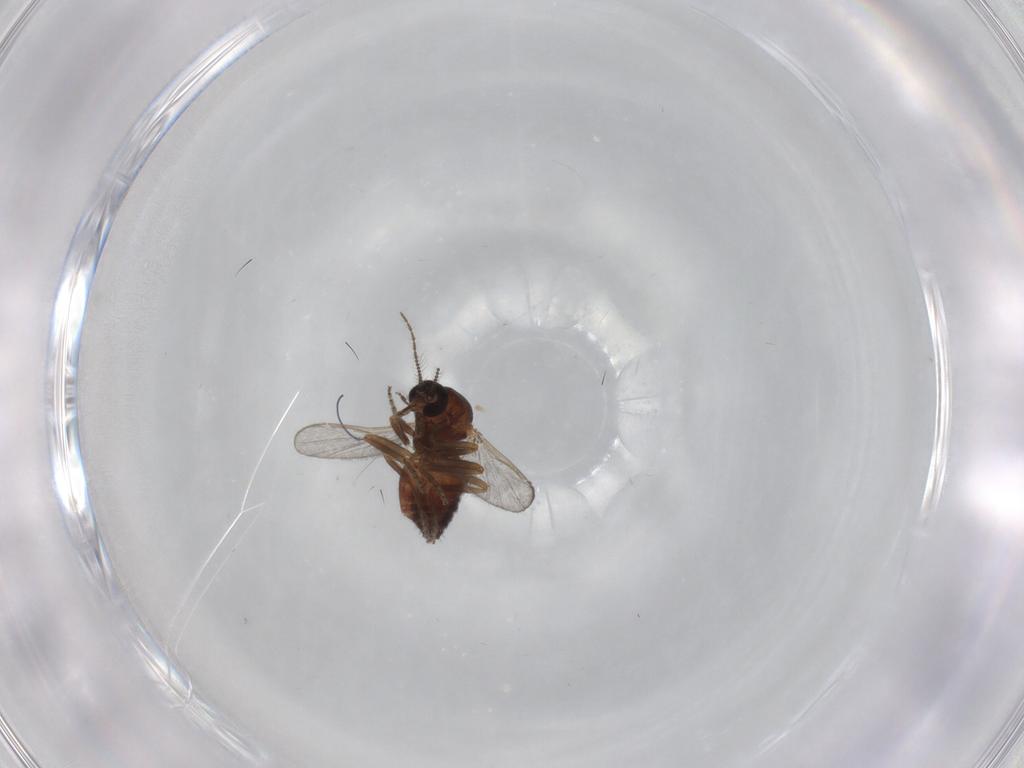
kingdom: Animalia
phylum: Arthropoda
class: Insecta
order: Diptera
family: Ceratopogonidae
